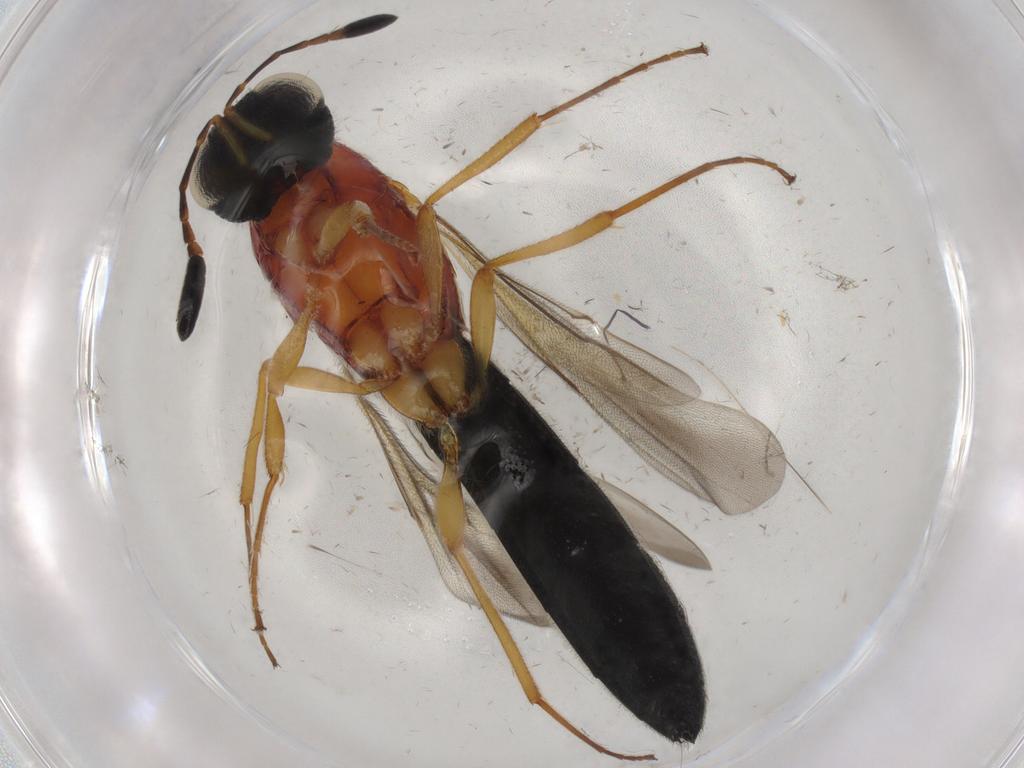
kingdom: Animalia
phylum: Arthropoda
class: Insecta
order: Hymenoptera
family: Scelionidae
